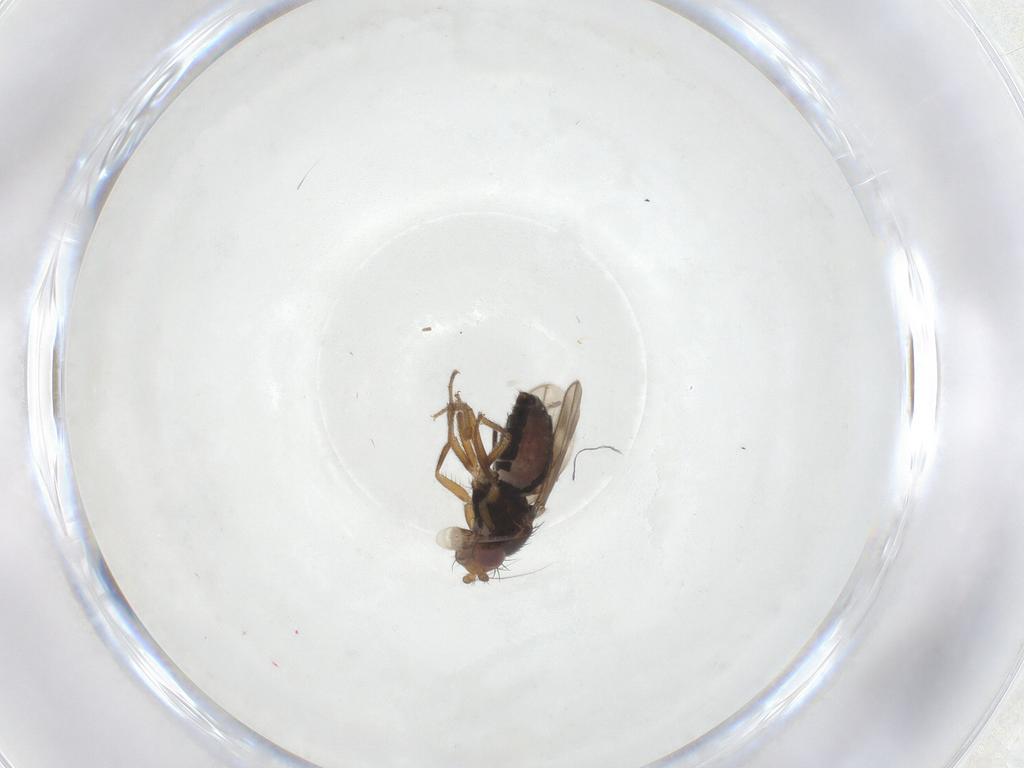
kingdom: Animalia
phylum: Arthropoda
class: Insecta
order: Diptera
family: Sphaeroceridae
